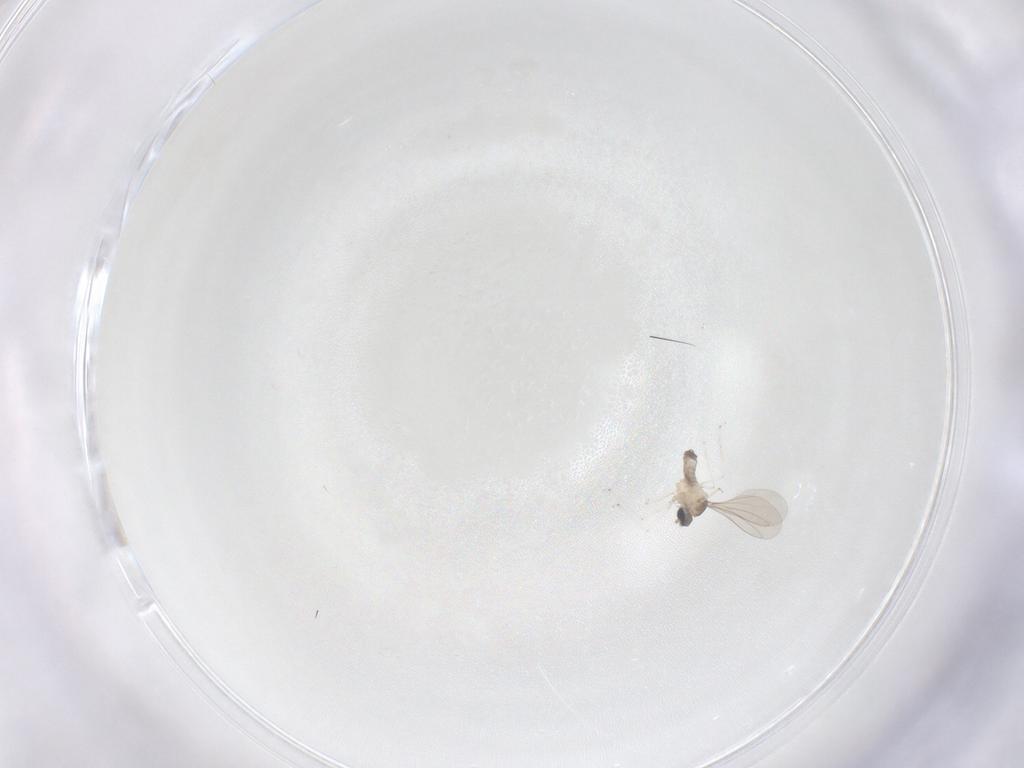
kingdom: Animalia
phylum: Arthropoda
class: Insecta
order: Diptera
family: Cecidomyiidae
